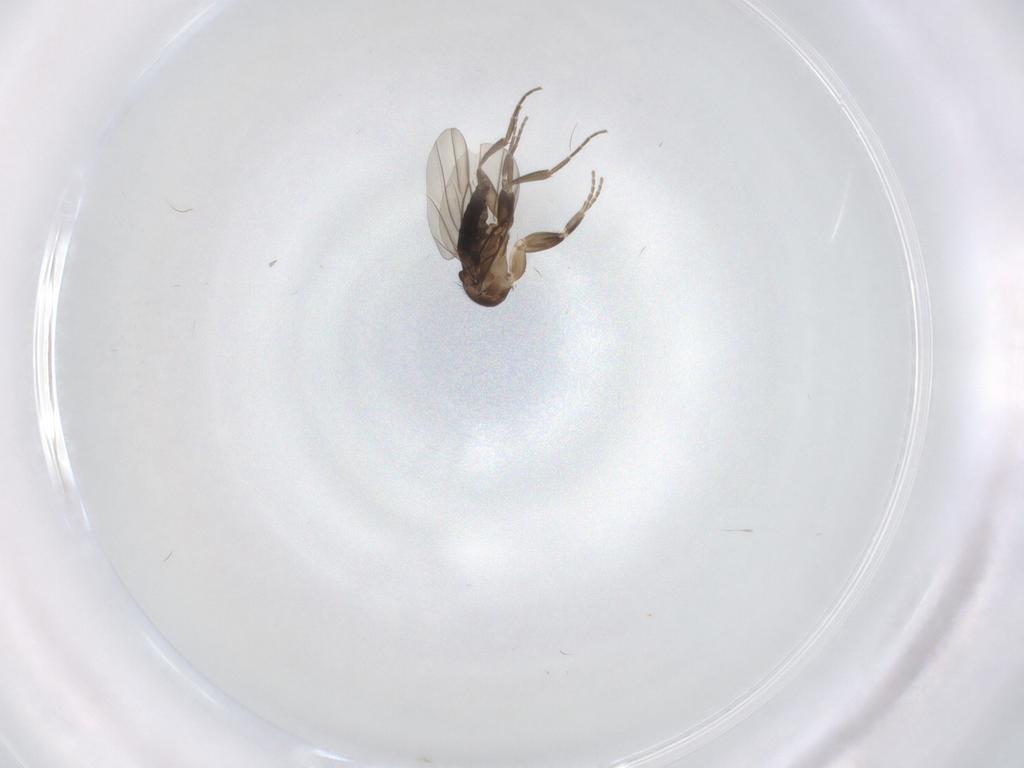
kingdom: Animalia
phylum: Arthropoda
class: Insecta
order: Diptera
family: Phoridae
